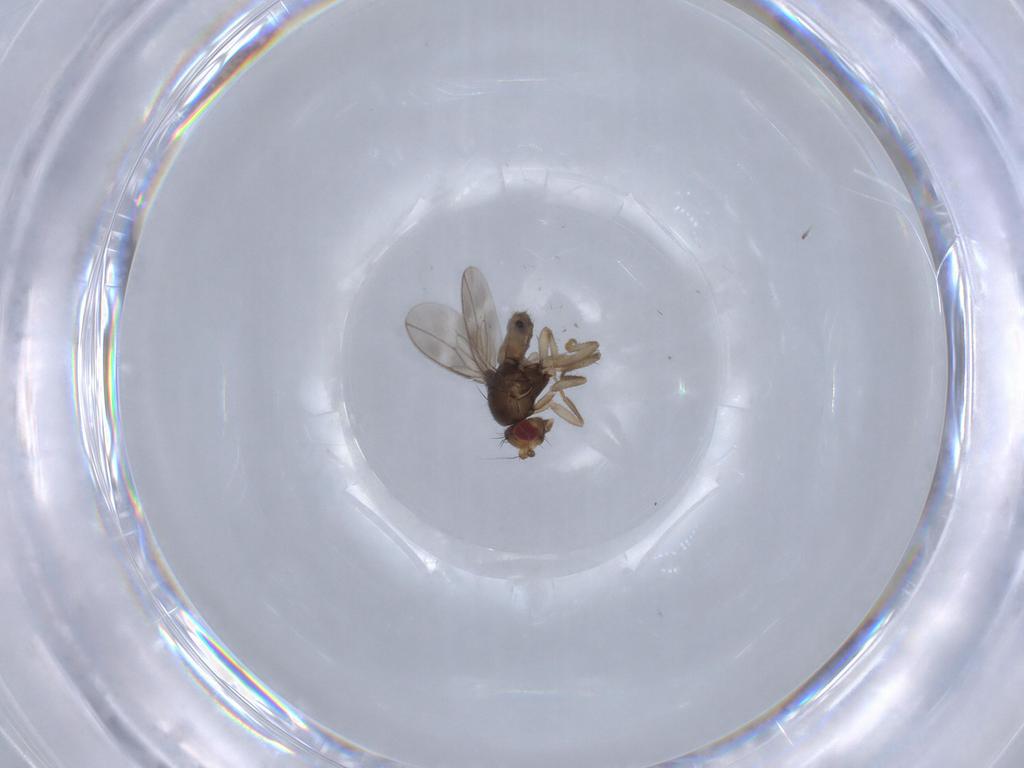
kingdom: Animalia
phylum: Arthropoda
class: Insecta
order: Diptera
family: Sphaeroceridae
